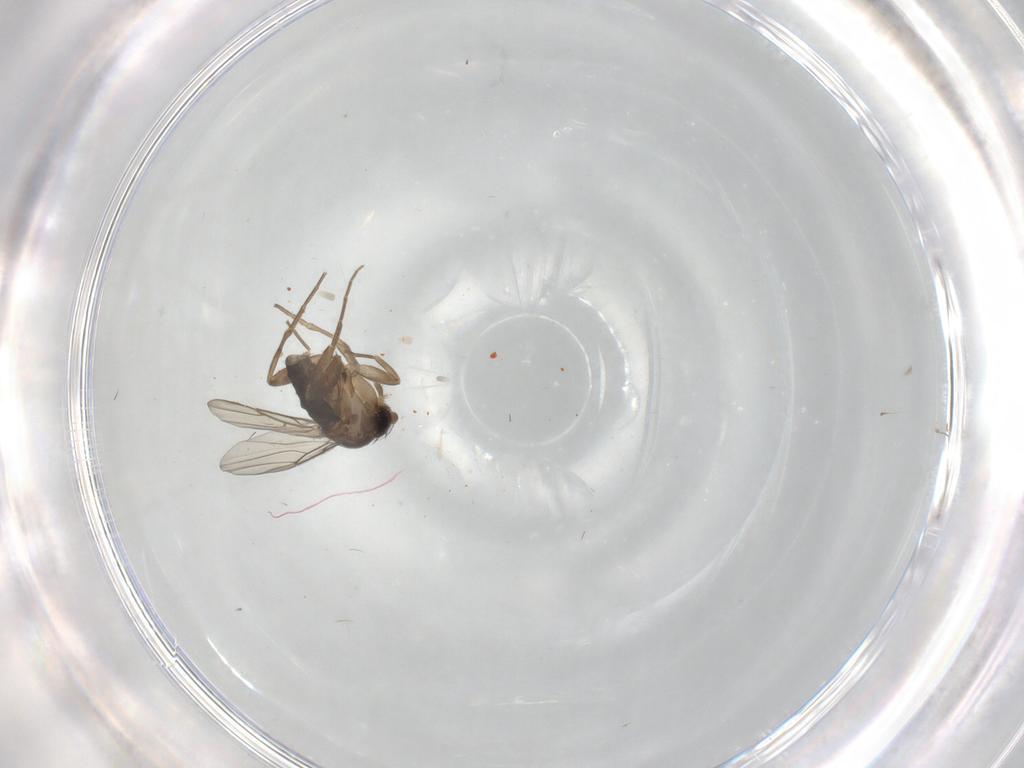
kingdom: Animalia
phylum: Arthropoda
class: Insecta
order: Diptera
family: Phoridae
